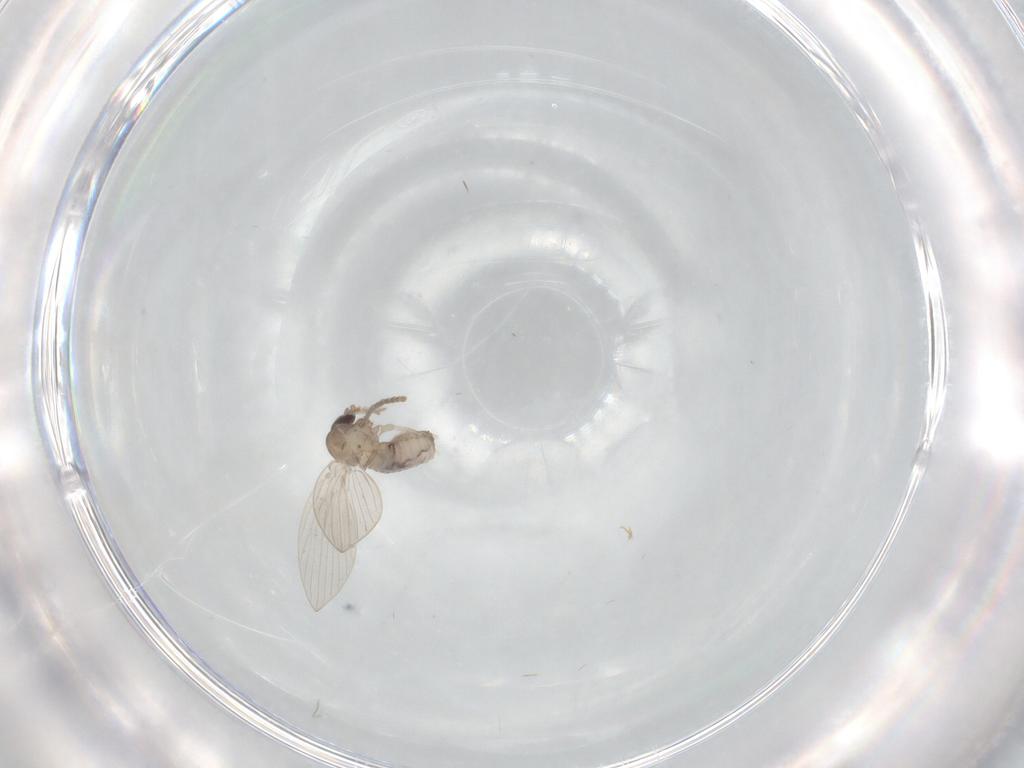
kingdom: Animalia
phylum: Arthropoda
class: Insecta
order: Diptera
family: Psychodidae
